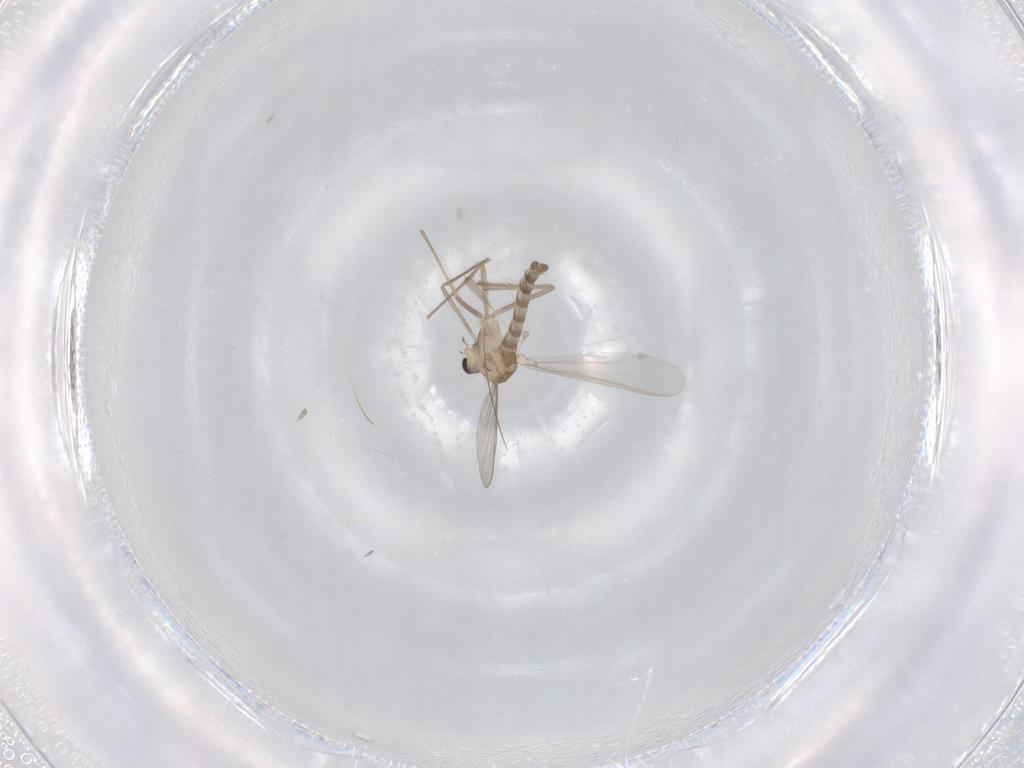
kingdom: Animalia
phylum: Arthropoda
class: Insecta
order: Diptera
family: Chironomidae
